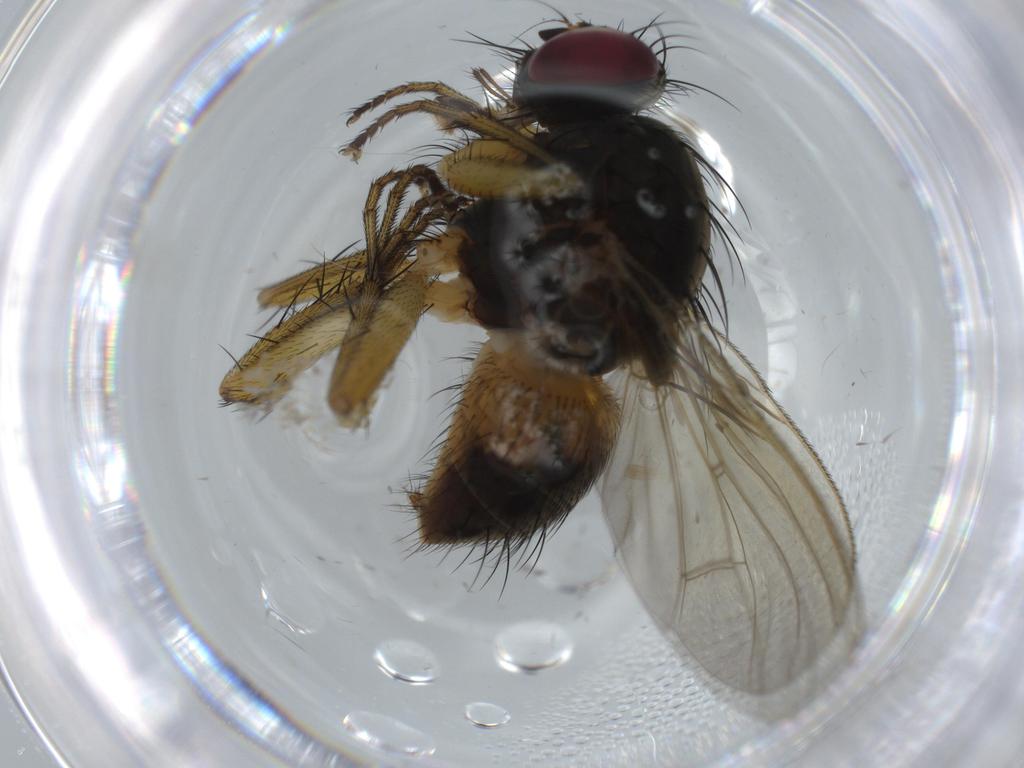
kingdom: Animalia
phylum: Arthropoda
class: Insecta
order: Diptera
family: Muscidae
